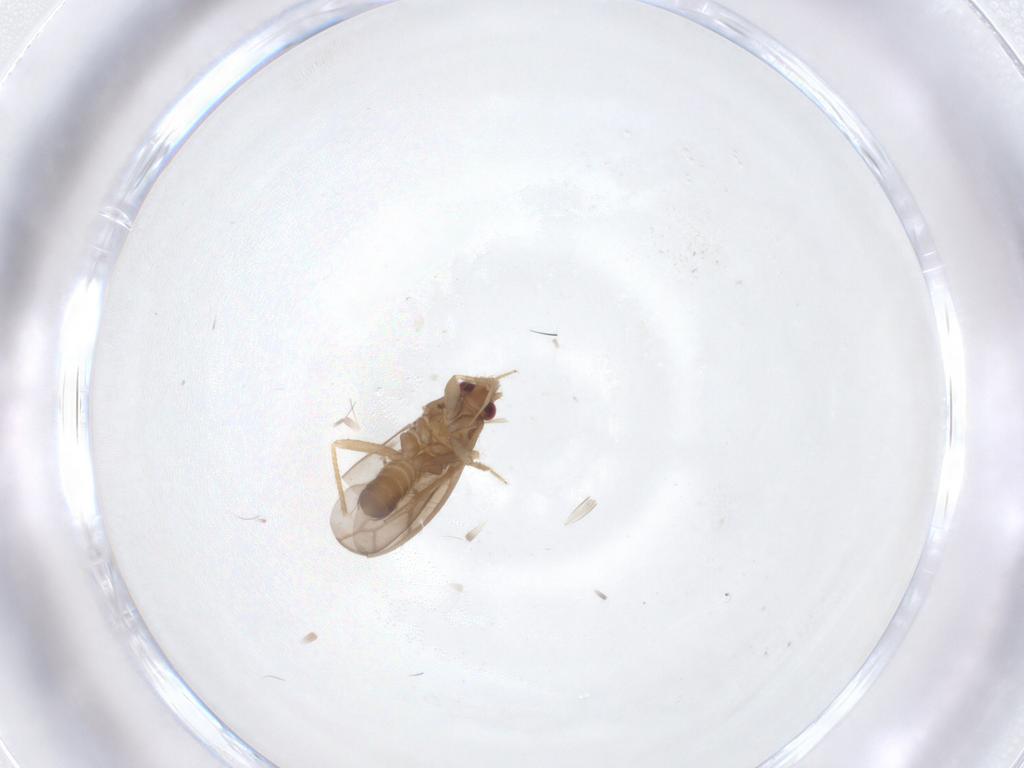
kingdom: Animalia
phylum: Arthropoda
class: Insecta
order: Hemiptera
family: Ceratocombidae
